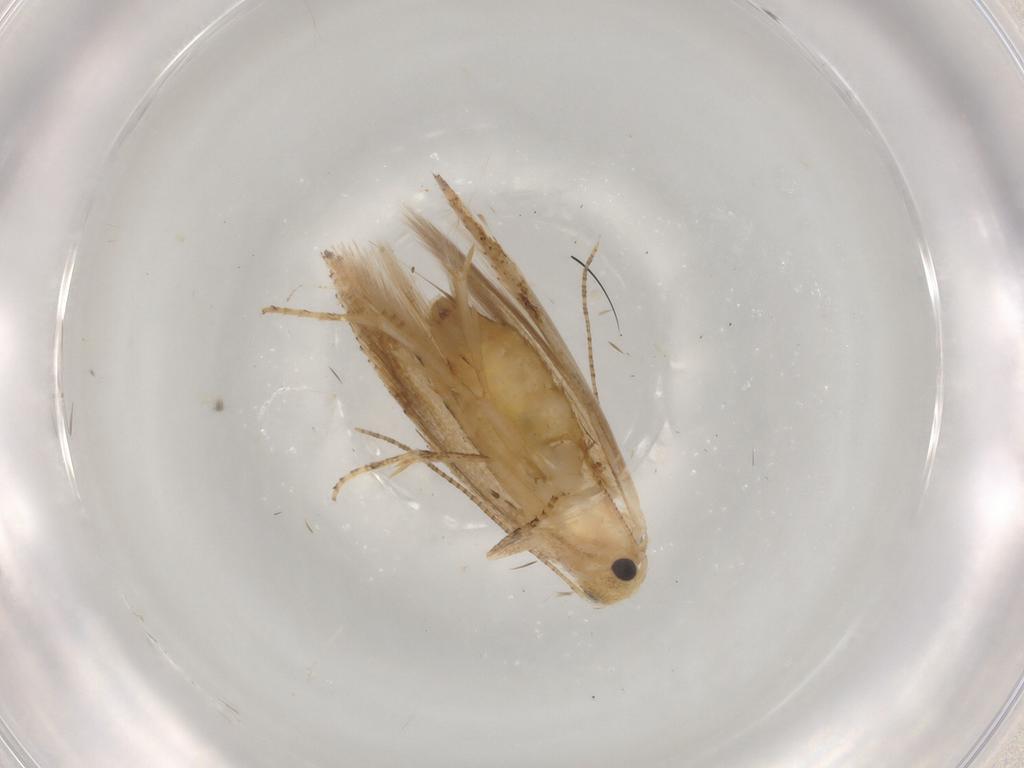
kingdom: Animalia
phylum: Arthropoda
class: Insecta
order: Lepidoptera
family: Bucculatricidae
